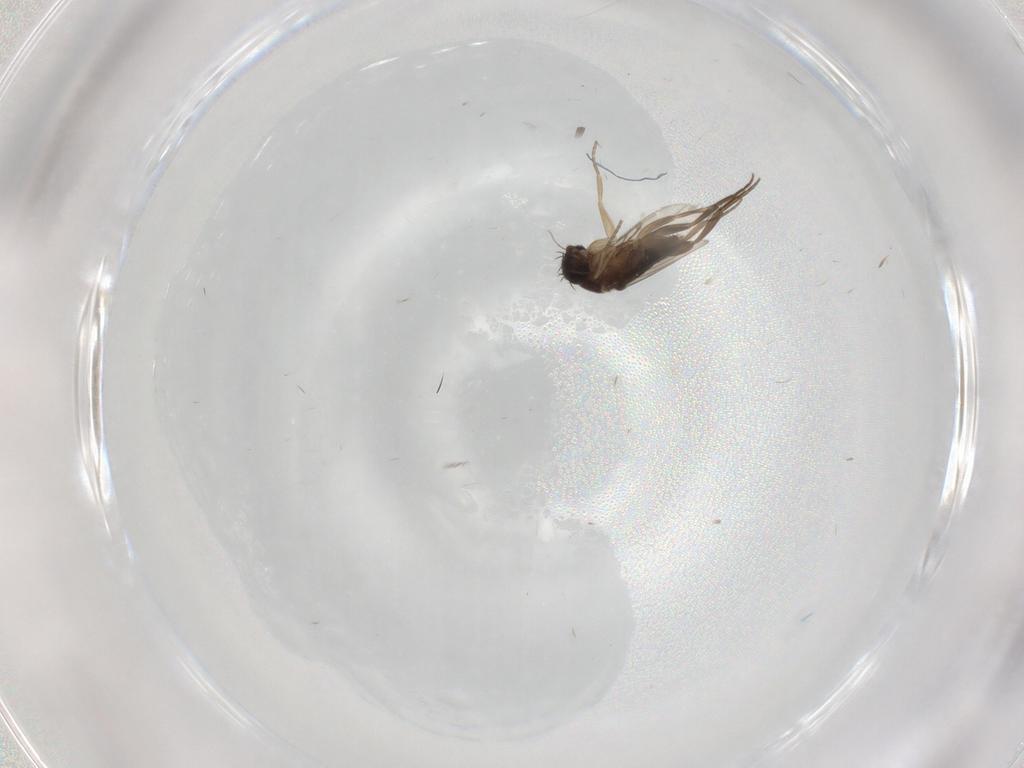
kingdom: Animalia
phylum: Arthropoda
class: Insecta
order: Diptera
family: Phoridae
